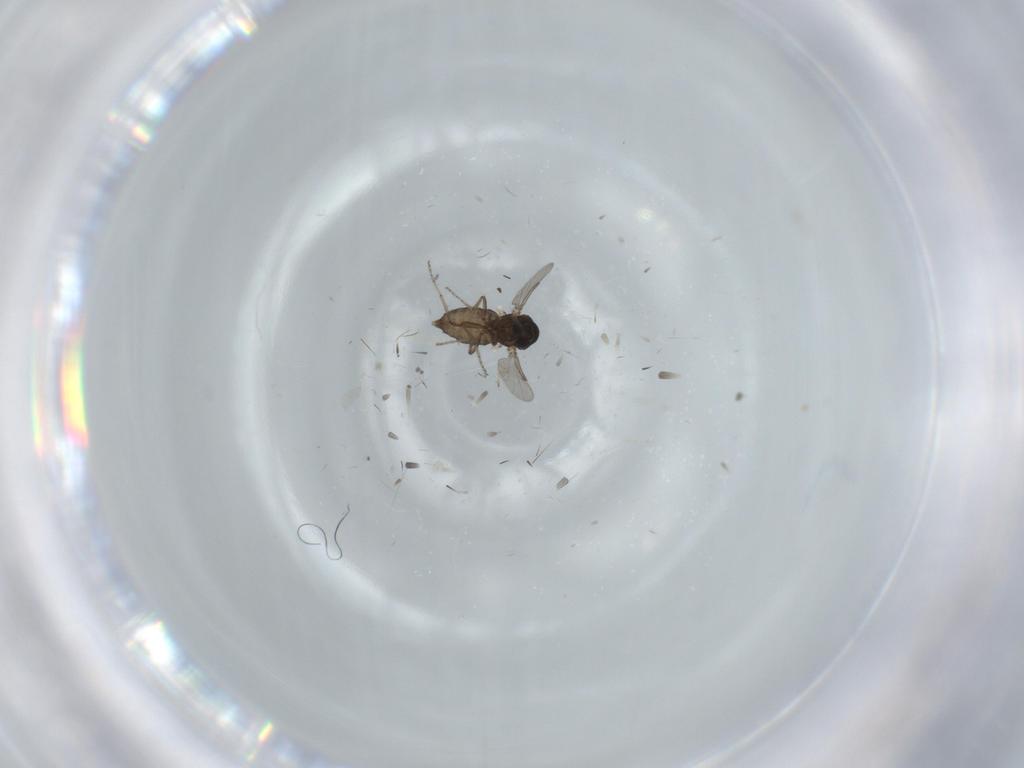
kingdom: Animalia
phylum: Arthropoda
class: Insecta
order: Diptera
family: Ceratopogonidae
